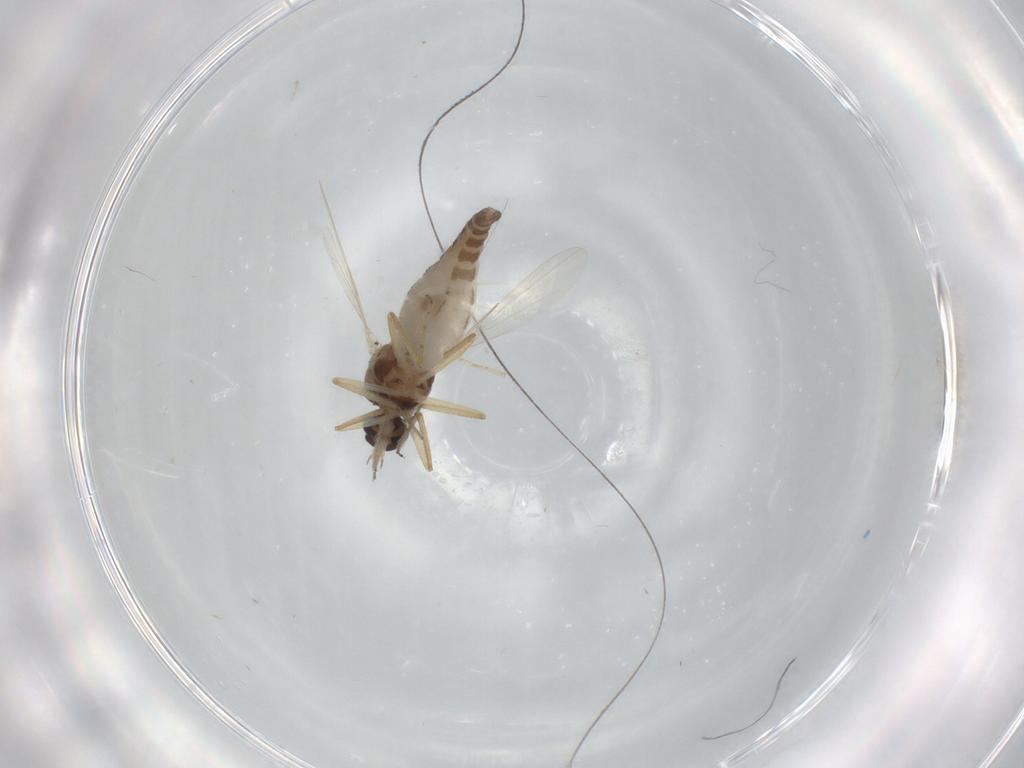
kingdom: Animalia
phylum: Arthropoda
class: Insecta
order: Diptera
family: Ceratopogonidae
